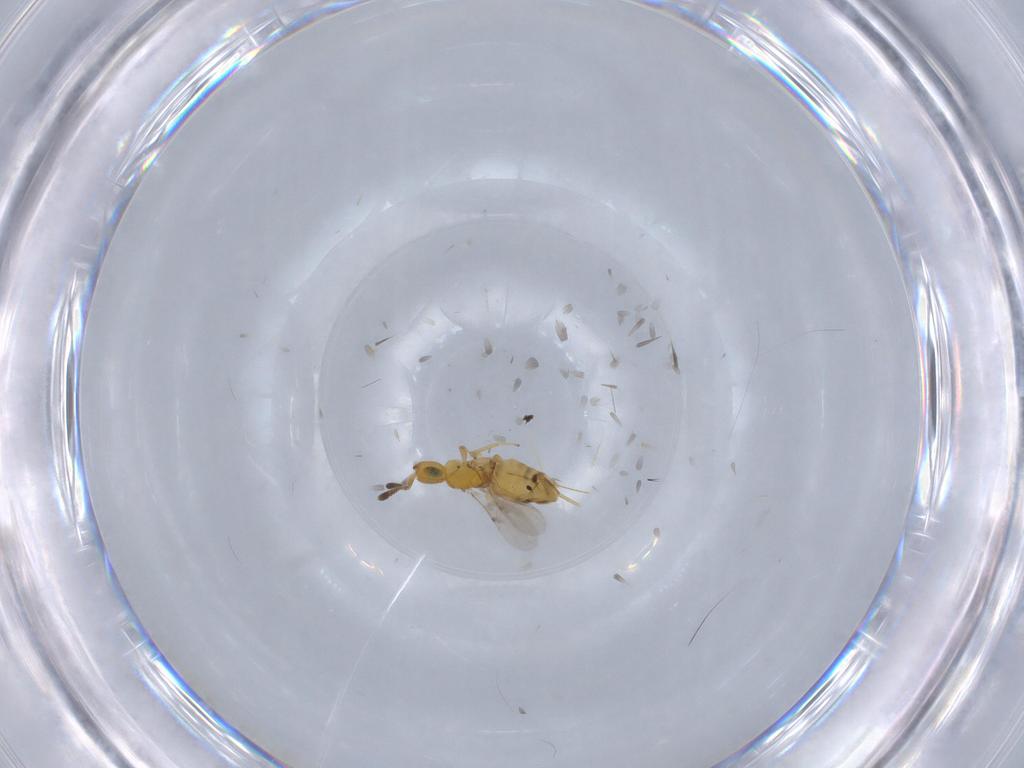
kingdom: Animalia
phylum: Arthropoda
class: Insecta
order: Hymenoptera
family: Encyrtidae
